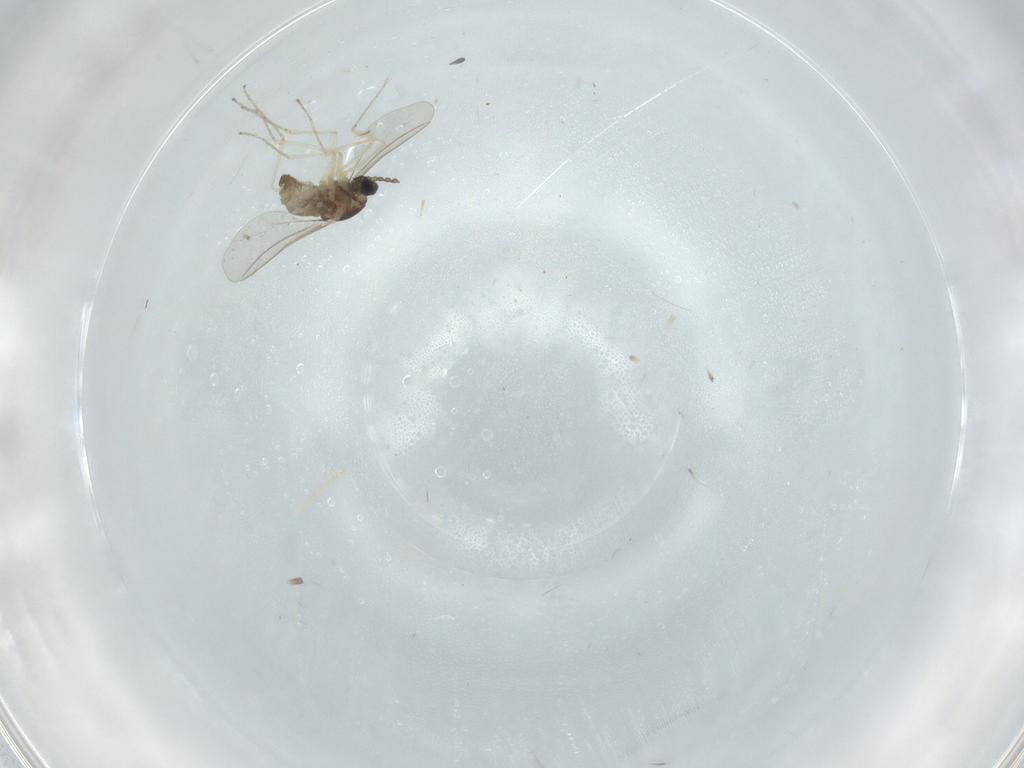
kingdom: Animalia
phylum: Arthropoda
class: Insecta
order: Diptera
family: Cecidomyiidae
